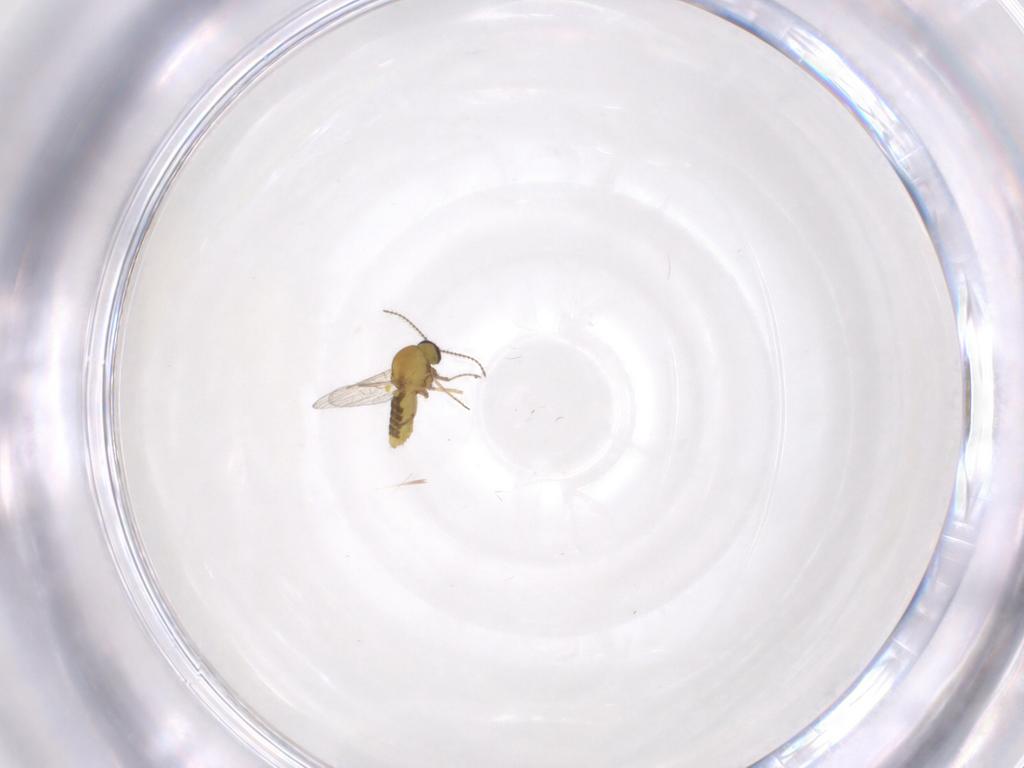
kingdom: Animalia
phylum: Arthropoda
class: Insecta
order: Diptera
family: Ceratopogonidae
